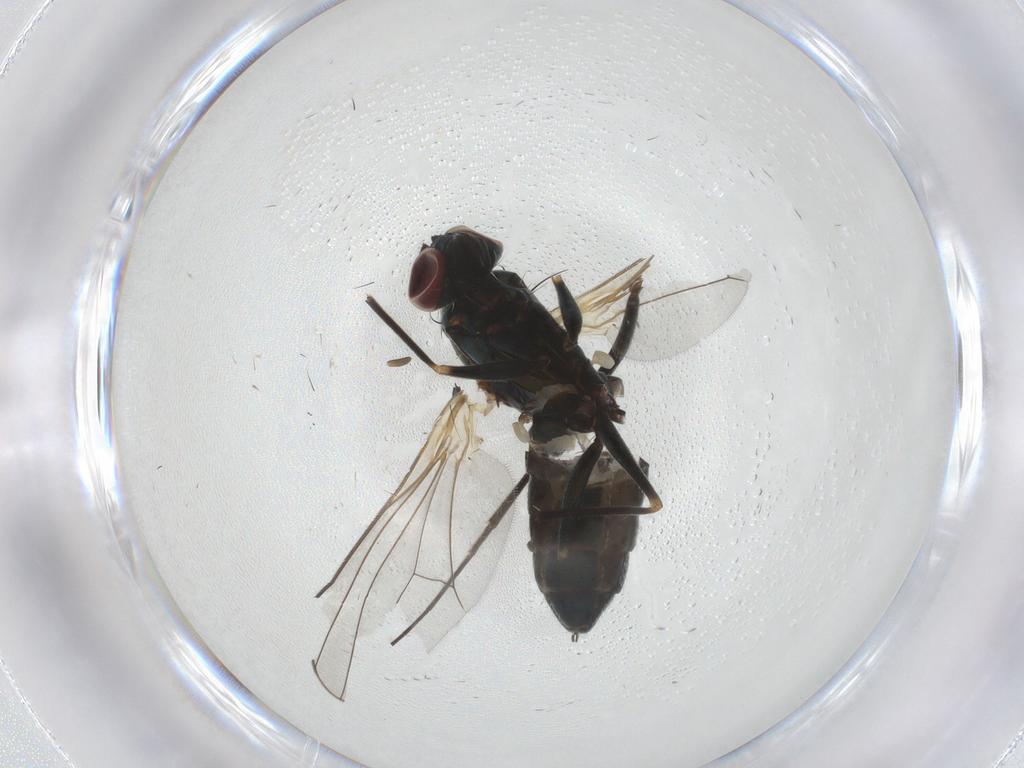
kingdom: Animalia
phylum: Arthropoda
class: Insecta
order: Diptera
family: Dolichopodidae
